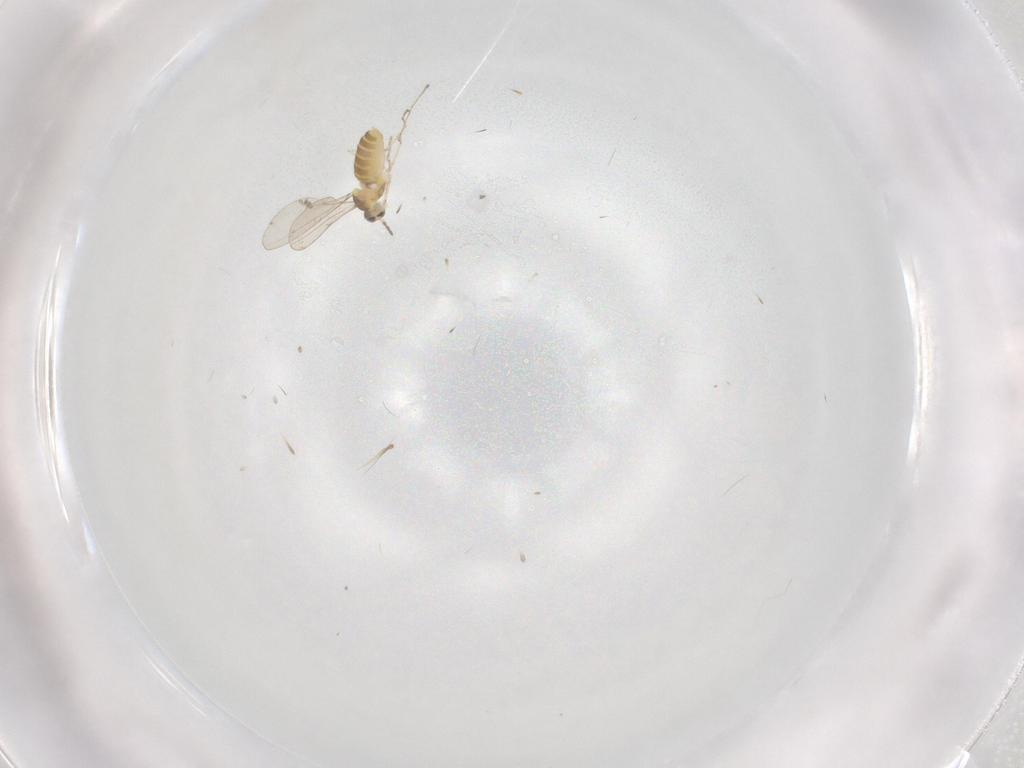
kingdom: Animalia
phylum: Arthropoda
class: Insecta
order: Diptera
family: Cecidomyiidae
